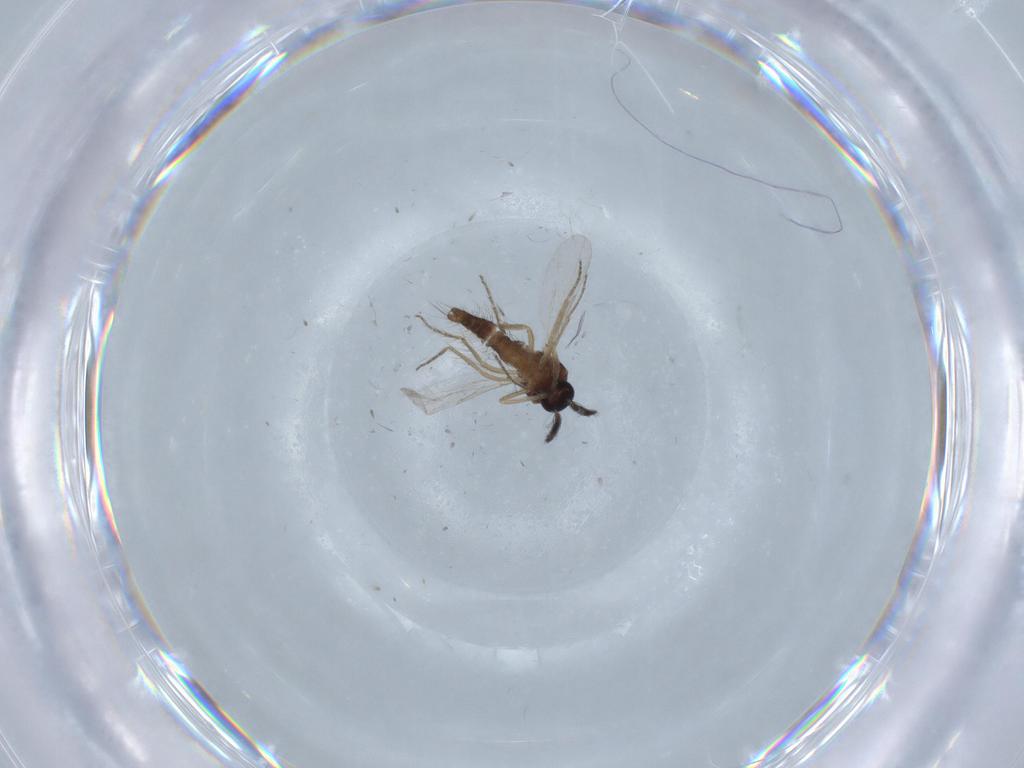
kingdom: Animalia
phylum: Arthropoda
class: Insecta
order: Diptera
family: Ceratopogonidae
